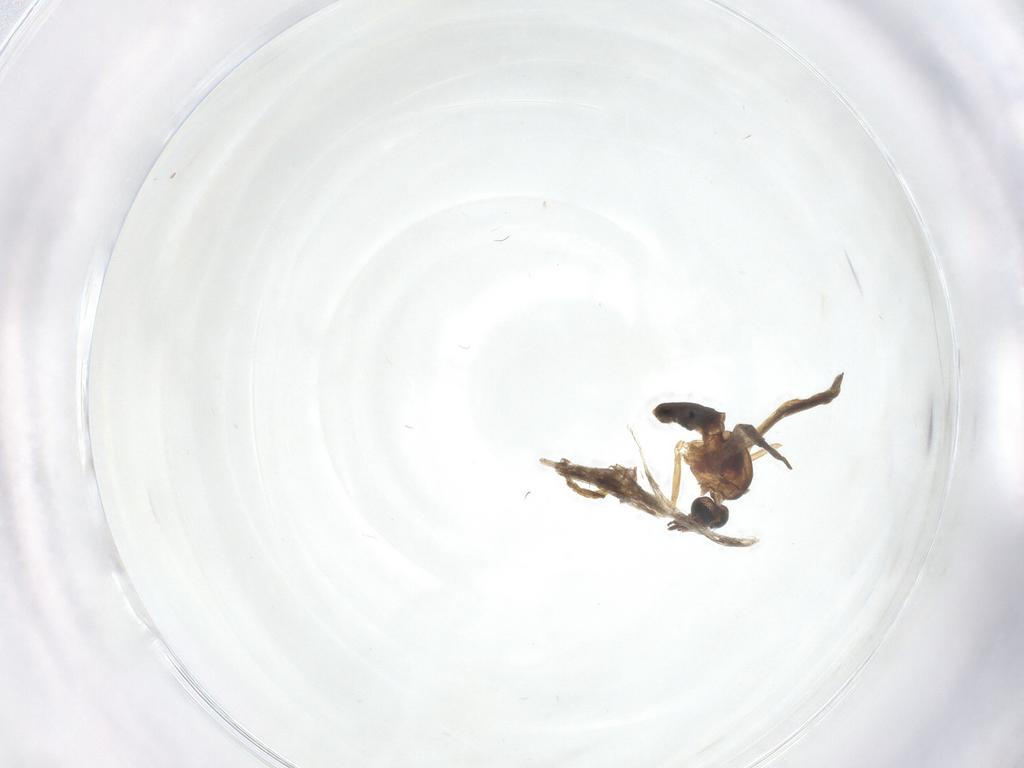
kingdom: Animalia
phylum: Arthropoda
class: Insecta
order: Diptera
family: Ceratopogonidae
